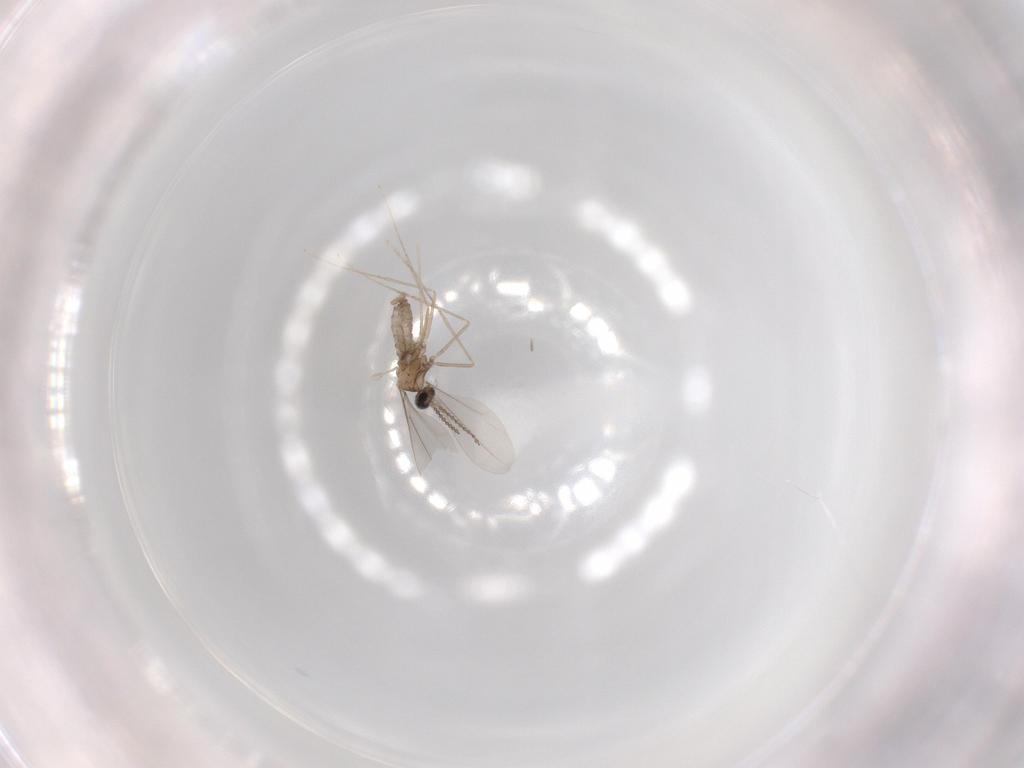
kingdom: Animalia
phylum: Arthropoda
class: Insecta
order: Diptera
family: Cecidomyiidae
